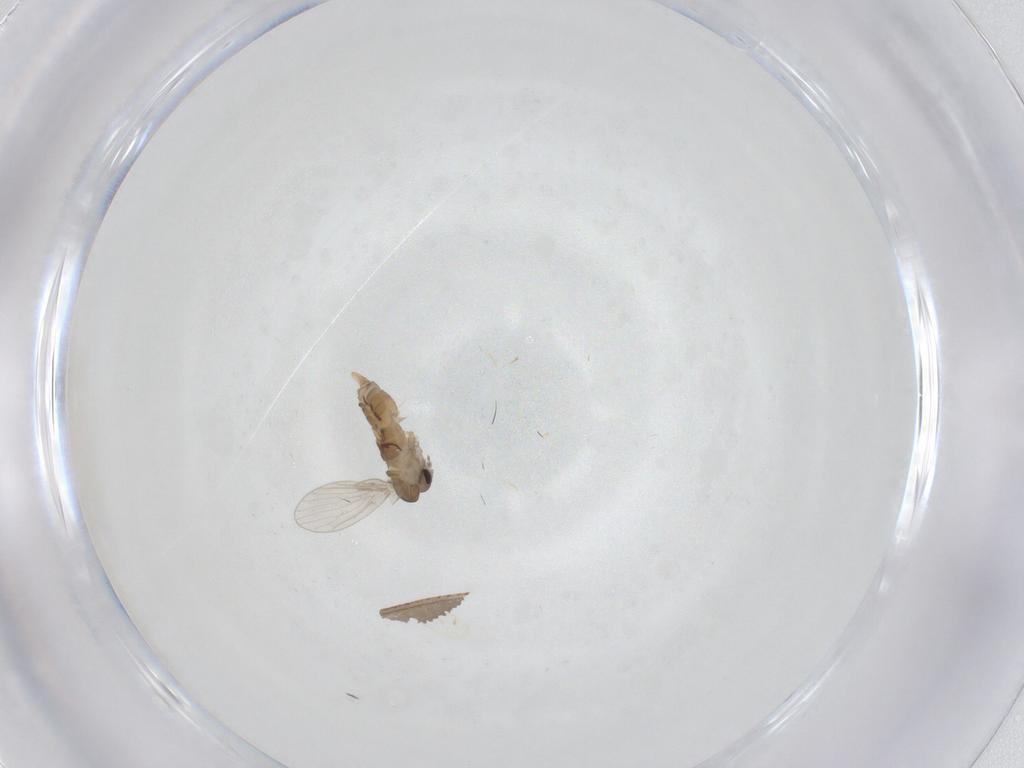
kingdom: Animalia
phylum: Arthropoda
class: Insecta
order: Diptera
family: Psychodidae
